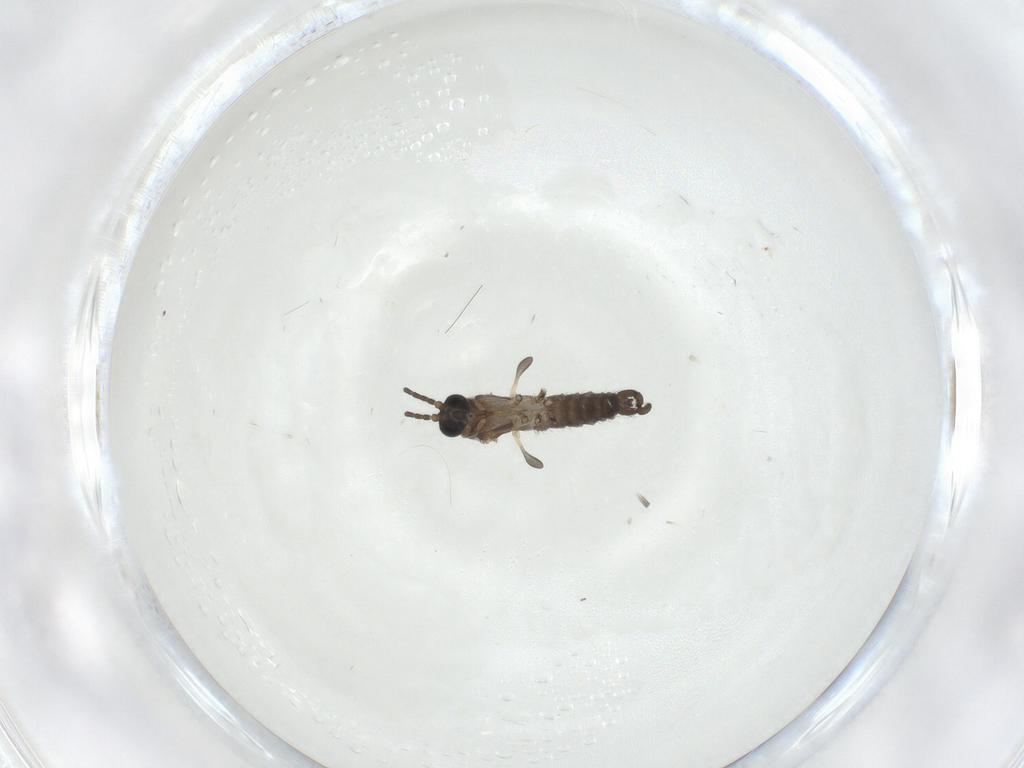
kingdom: Animalia
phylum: Arthropoda
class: Insecta
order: Diptera
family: Sciaridae
